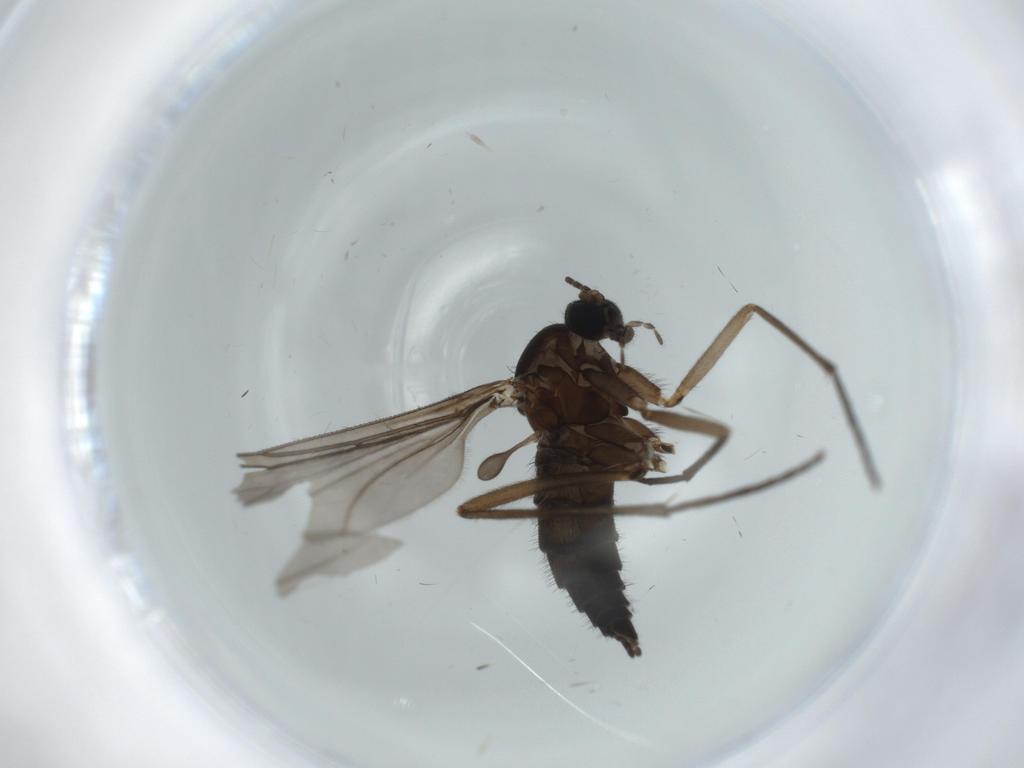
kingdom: Animalia
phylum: Arthropoda
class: Insecta
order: Diptera
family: Sciaridae
